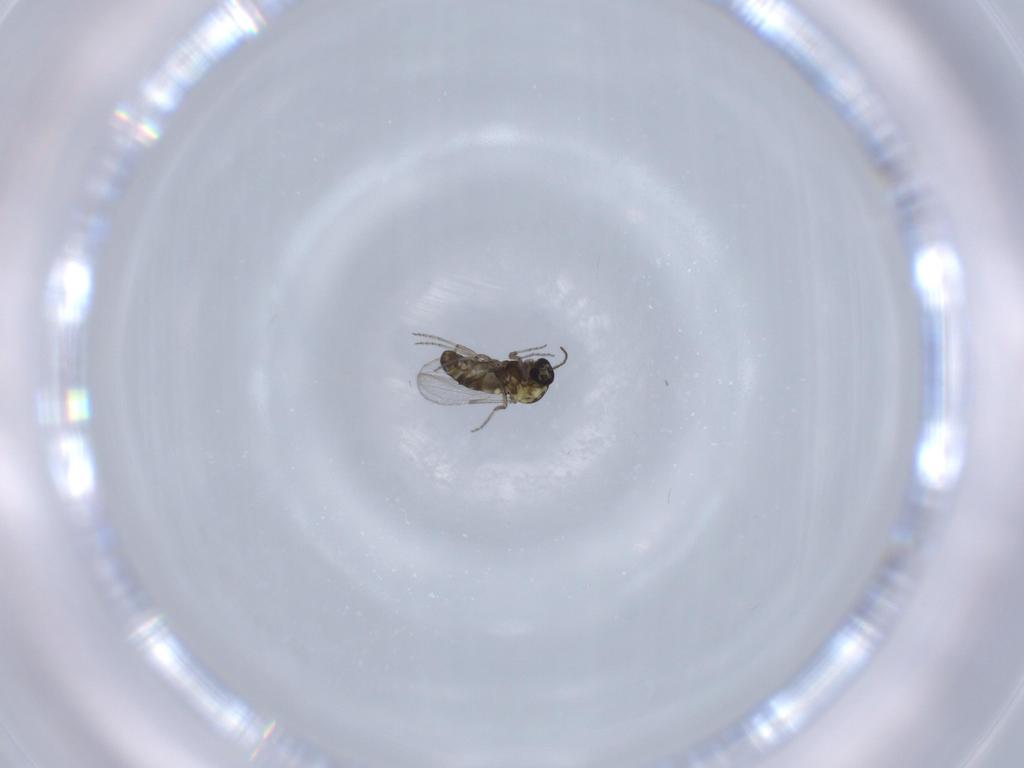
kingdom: Animalia
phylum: Arthropoda
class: Insecta
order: Diptera
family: Ceratopogonidae
